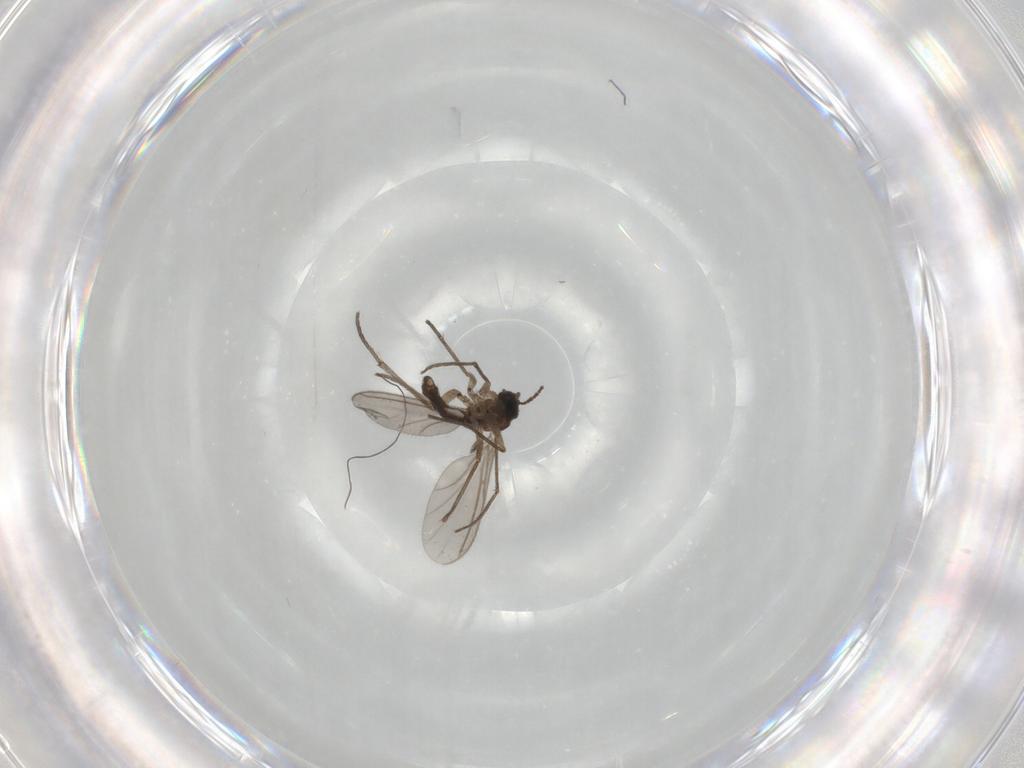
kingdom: Animalia
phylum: Arthropoda
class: Insecta
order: Diptera
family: Sciaridae
